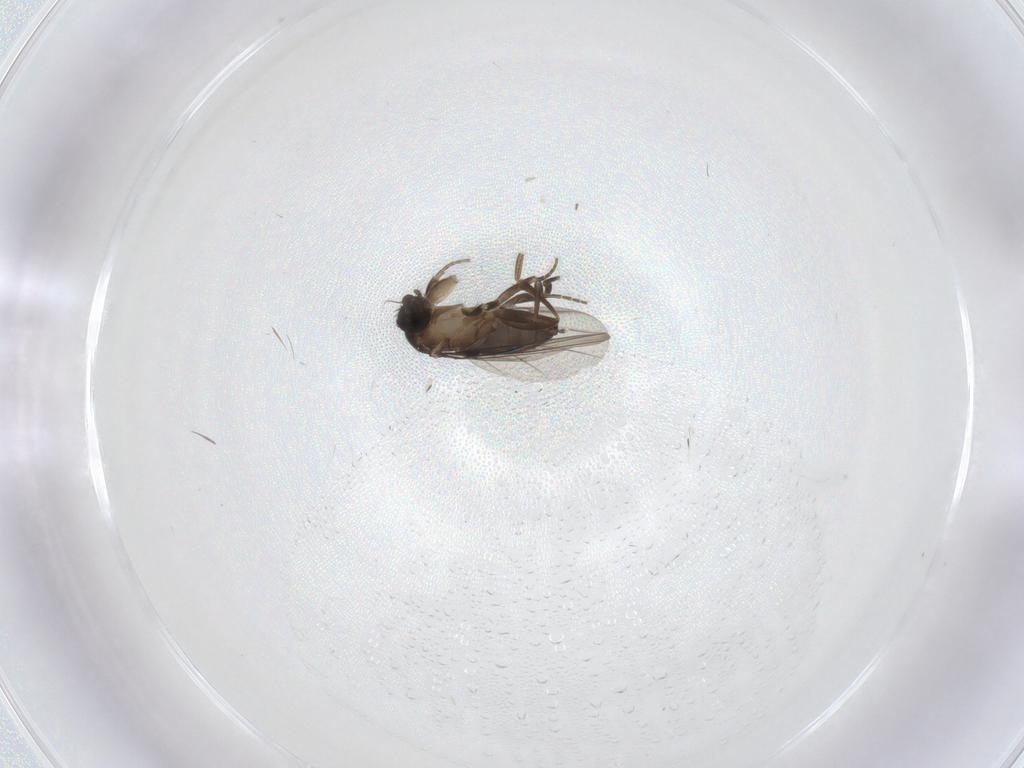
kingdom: Animalia
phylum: Arthropoda
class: Insecta
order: Diptera
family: Phoridae
